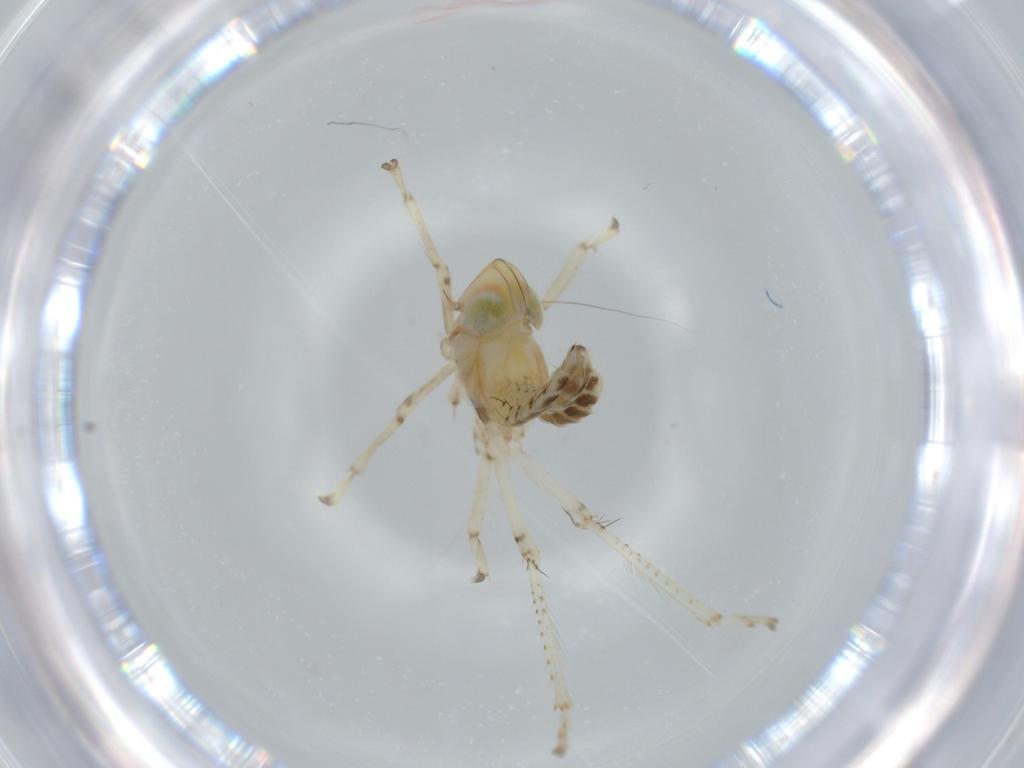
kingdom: Animalia
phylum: Arthropoda
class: Insecta
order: Hemiptera
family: Cicadellidae
